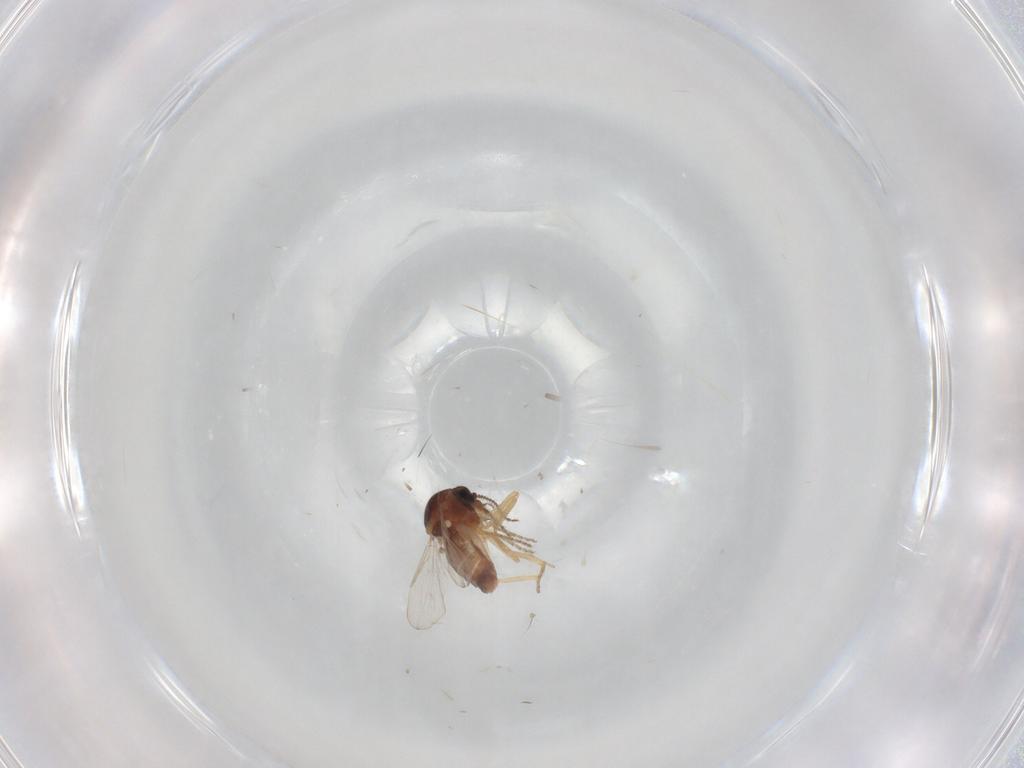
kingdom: Animalia
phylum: Arthropoda
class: Insecta
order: Diptera
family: Ceratopogonidae
